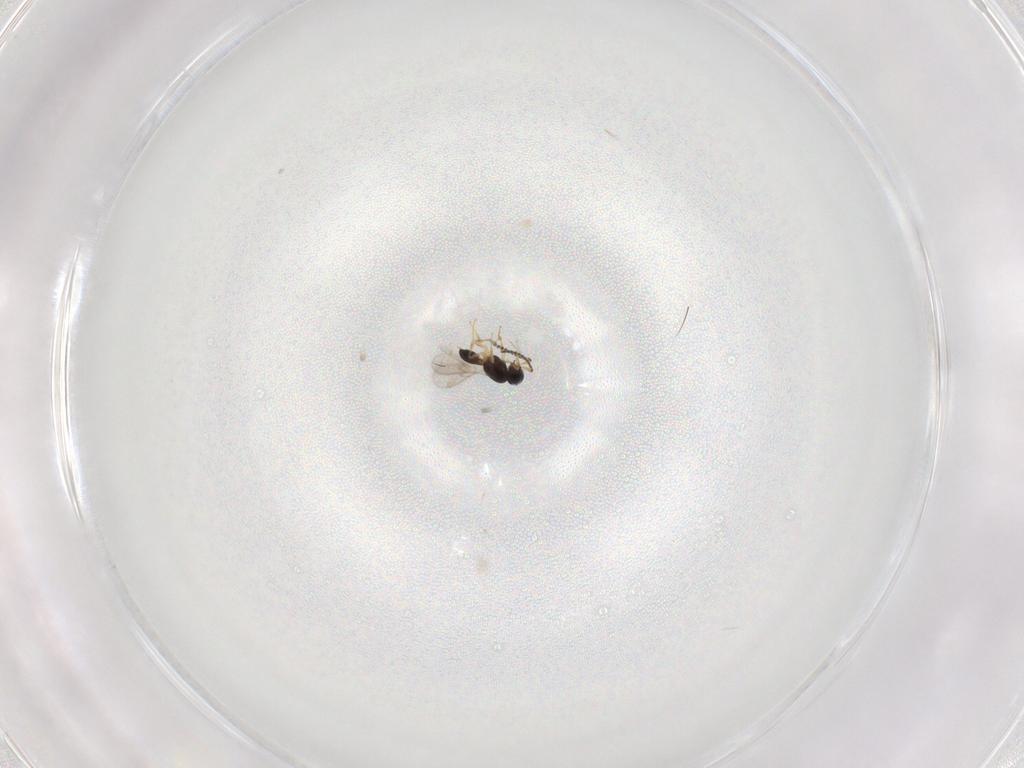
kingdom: Animalia
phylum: Arthropoda
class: Insecta
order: Hymenoptera
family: Scelionidae
